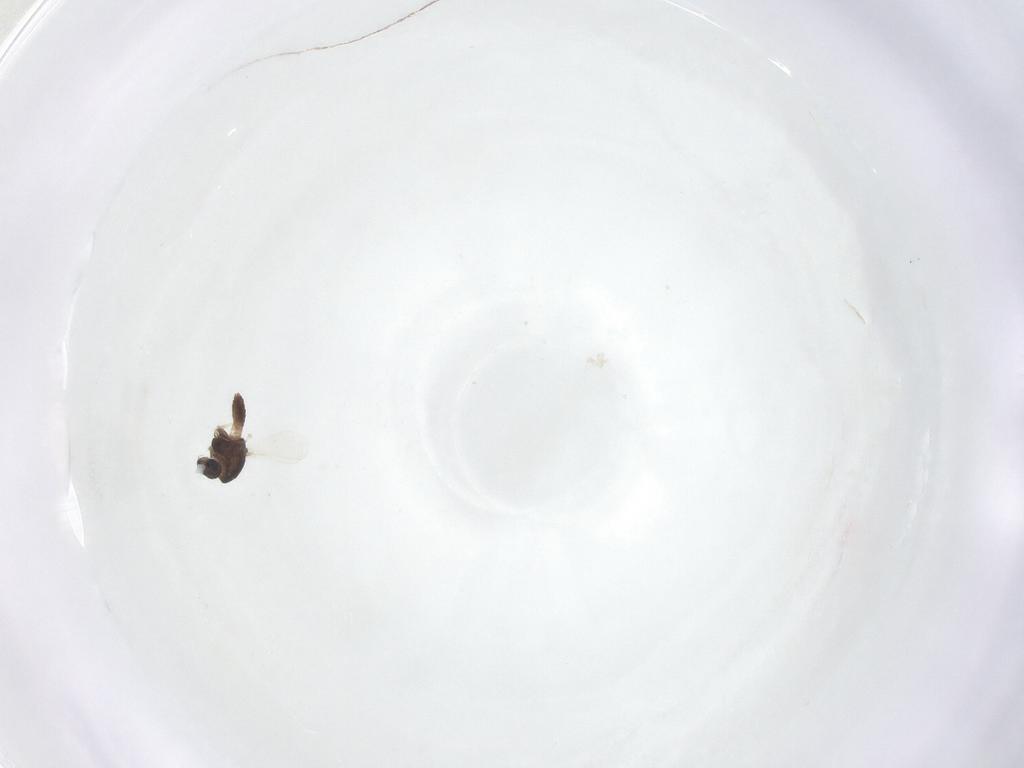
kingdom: Animalia
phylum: Arthropoda
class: Insecta
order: Diptera
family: Chironomidae
